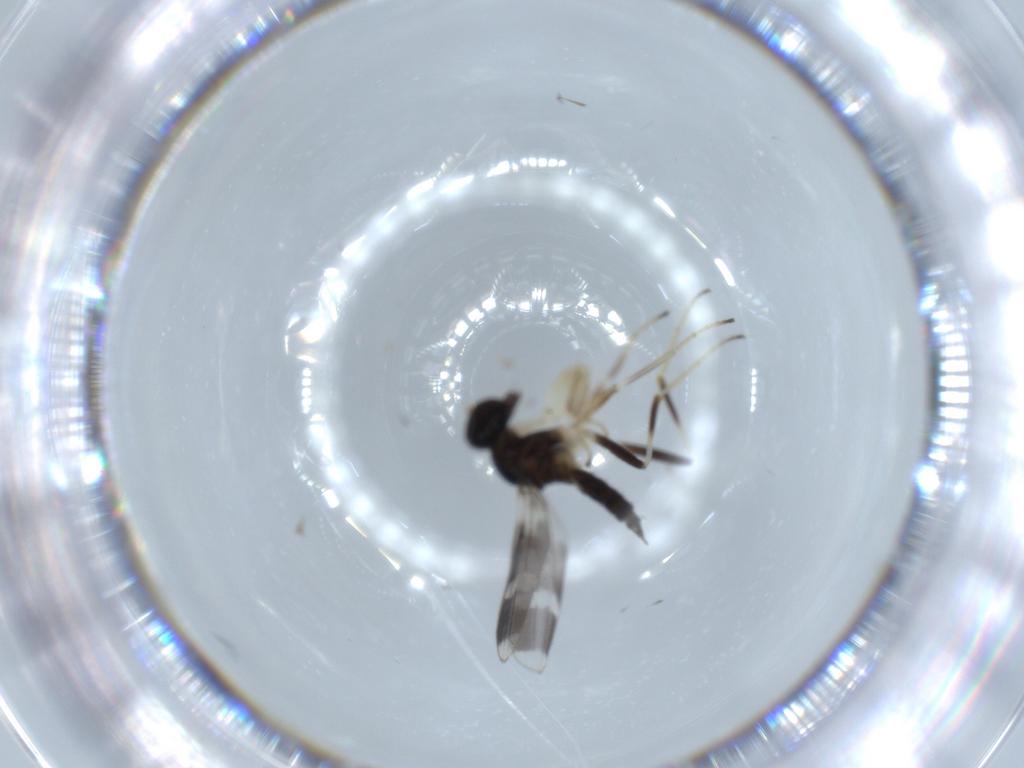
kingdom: Animalia
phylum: Arthropoda
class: Insecta
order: Diptera
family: Hybotidae
